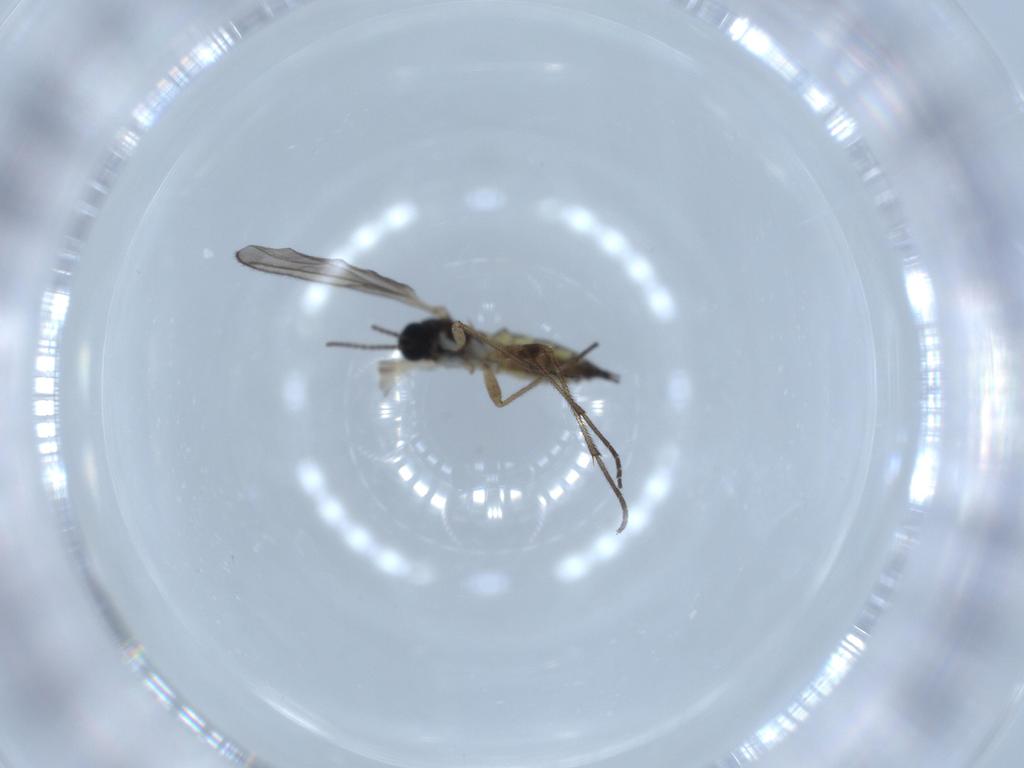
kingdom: Animalia
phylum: Arthropoda
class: Insecta
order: Diptera
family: Sciaridae
